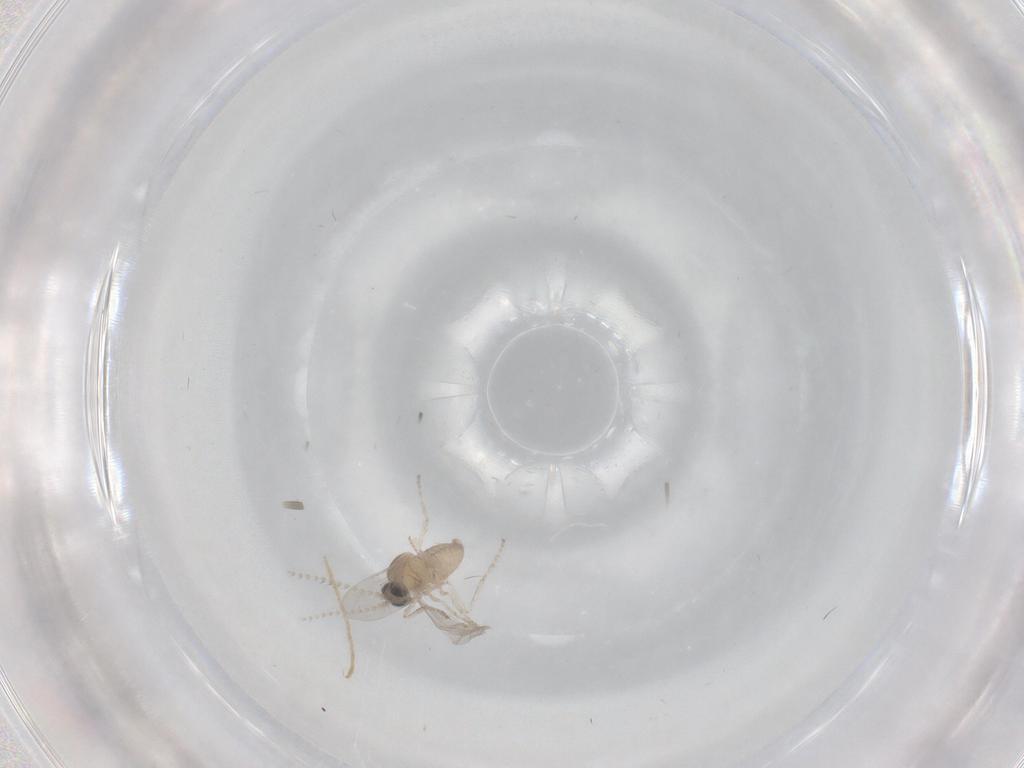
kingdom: Animalia
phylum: Arthropoda
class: Insecta
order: Diptera
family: Cecidomyiidae
